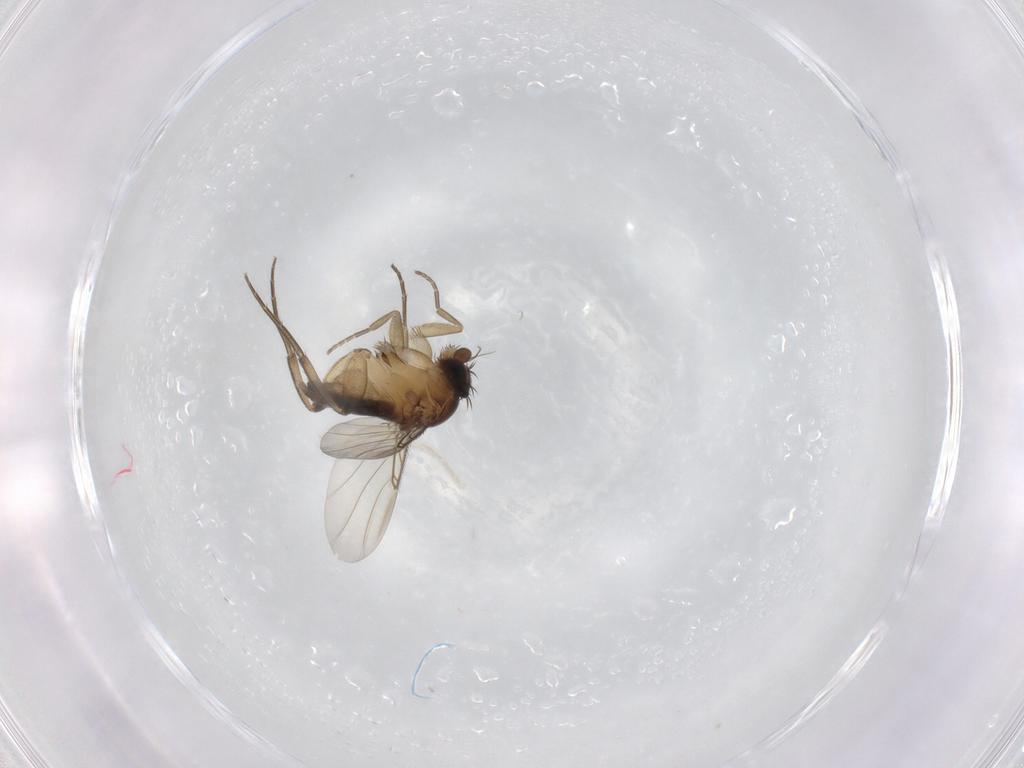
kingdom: Animalia
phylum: Arthropoda
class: Insecta
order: Diptera
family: Phoridae
